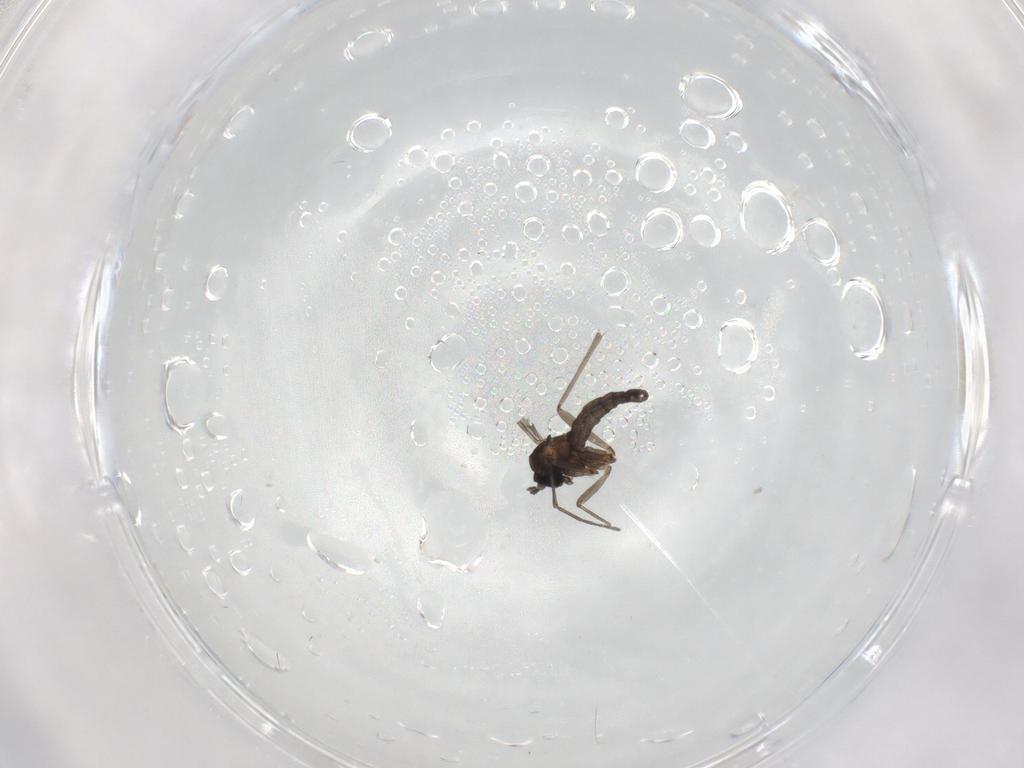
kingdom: Animalia
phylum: Arthropoda
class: Insecta
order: Diptera
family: Sciaridae
